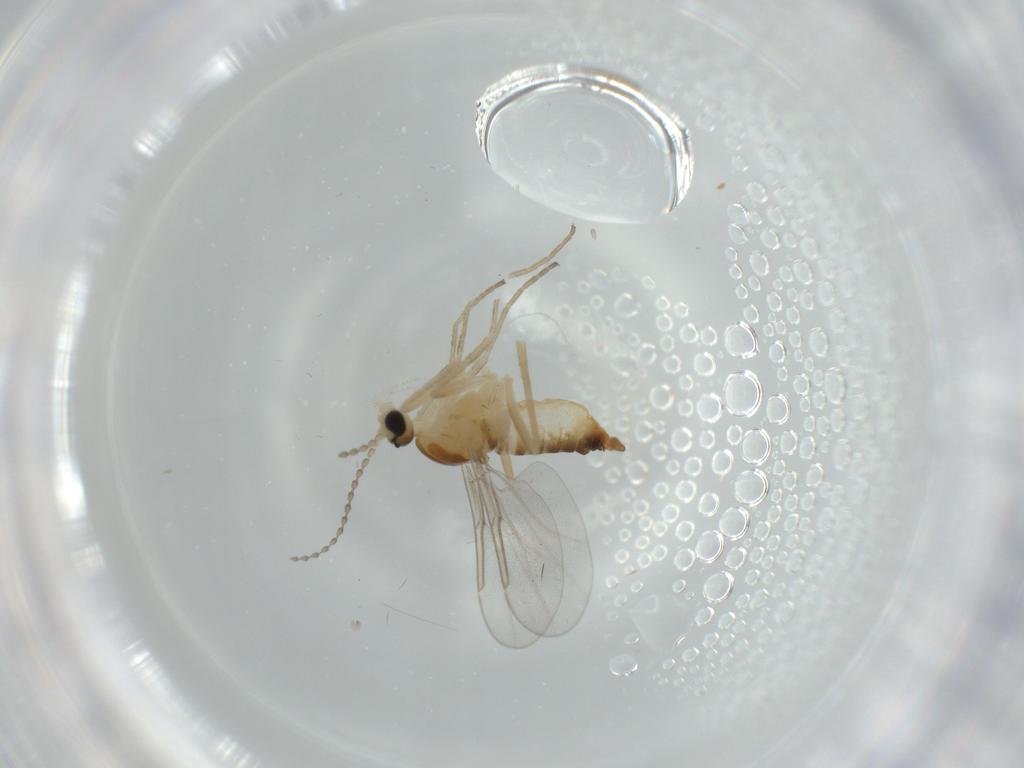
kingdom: Animalia
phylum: Arthropoda
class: Insecta
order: Diptera
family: Cecidomyiidae
